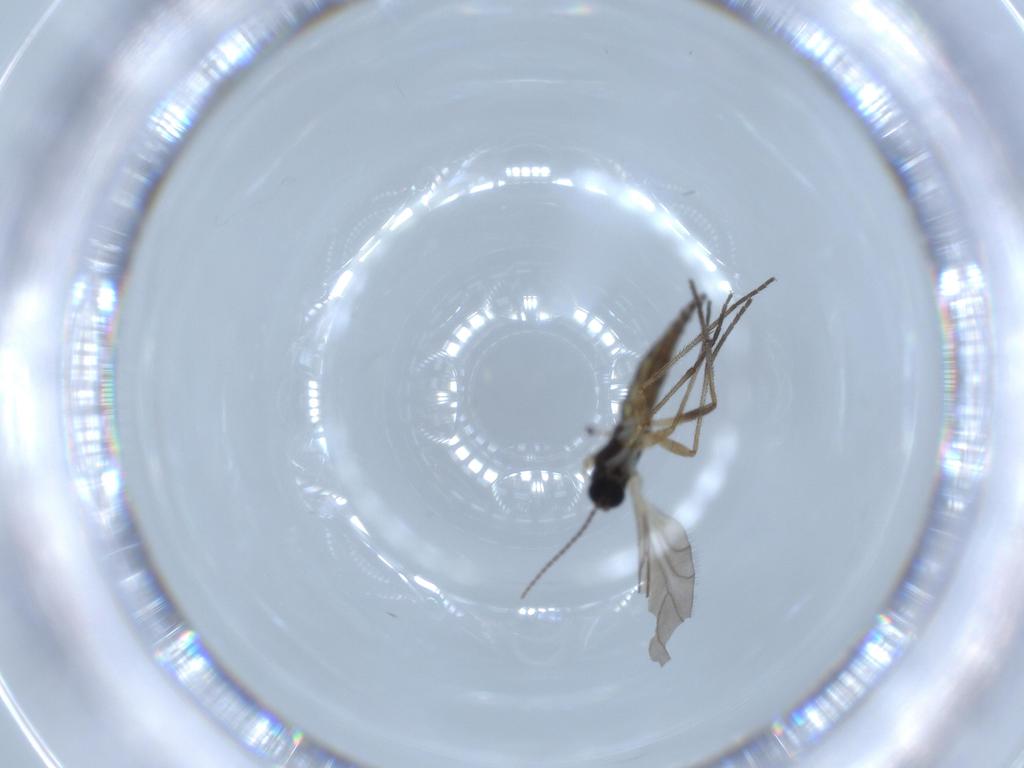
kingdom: Animalia
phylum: Arthropoda
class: Insecta
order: Diptera
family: Sciaridae
